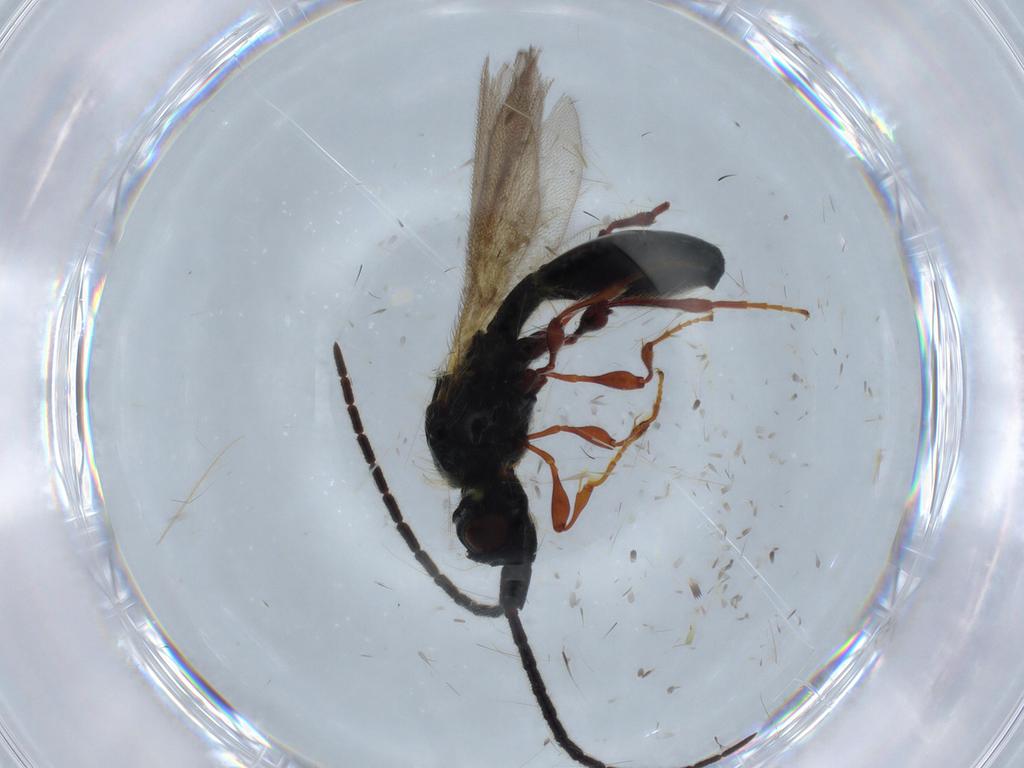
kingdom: Animalia
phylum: Arthropoda
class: Insecta
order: Hymenoptera
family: Diapriidae
